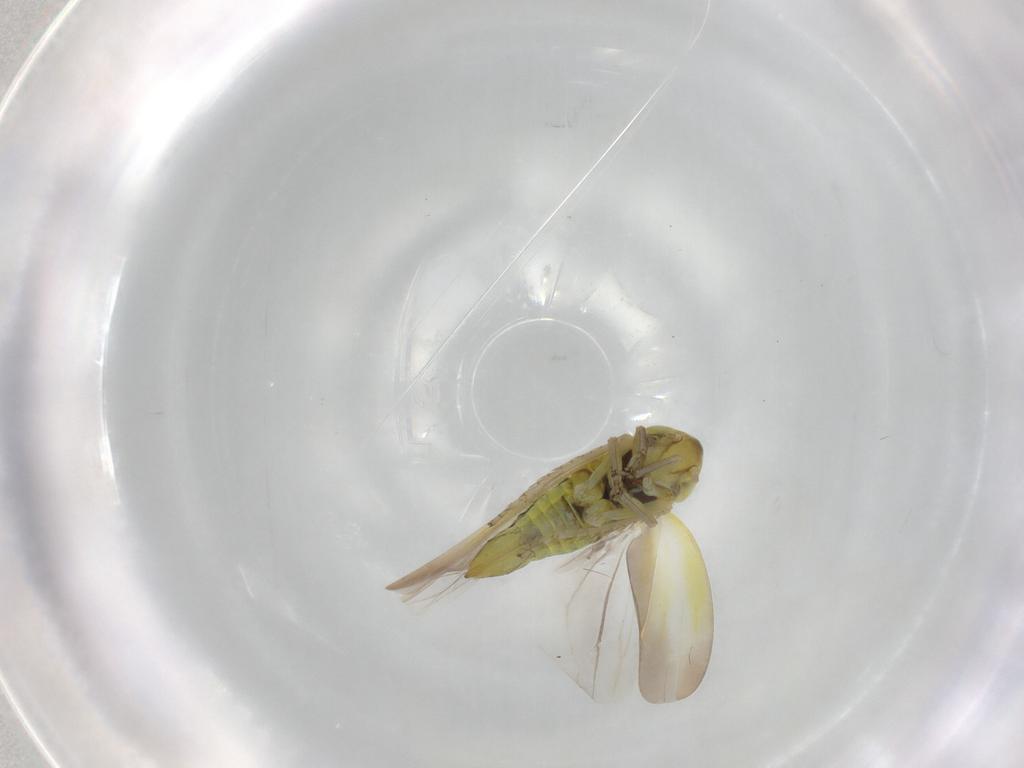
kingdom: Animalia
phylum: Arthropoda
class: Insecta
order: Hemiptera
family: Cicadellidae
